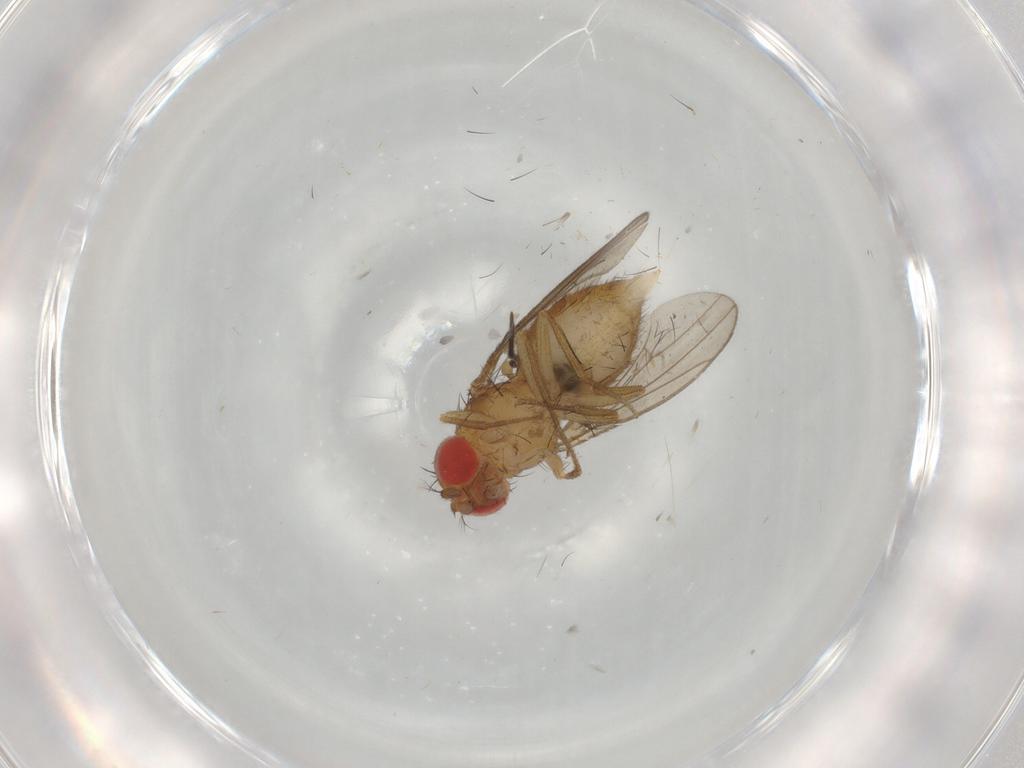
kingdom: Animalia
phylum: Arthropoda
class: Insecta
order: Diptera
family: Drosophilidae
